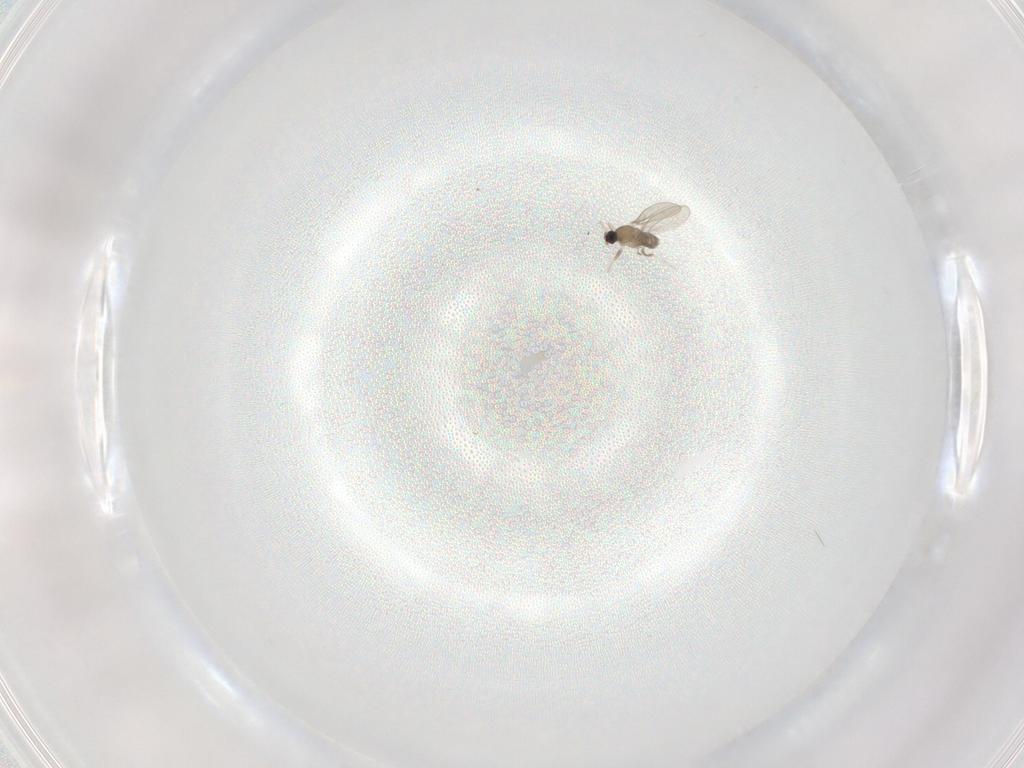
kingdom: Animalia
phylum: Arthropoda
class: Insecta
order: Diptera
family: Cecidomyiidae
